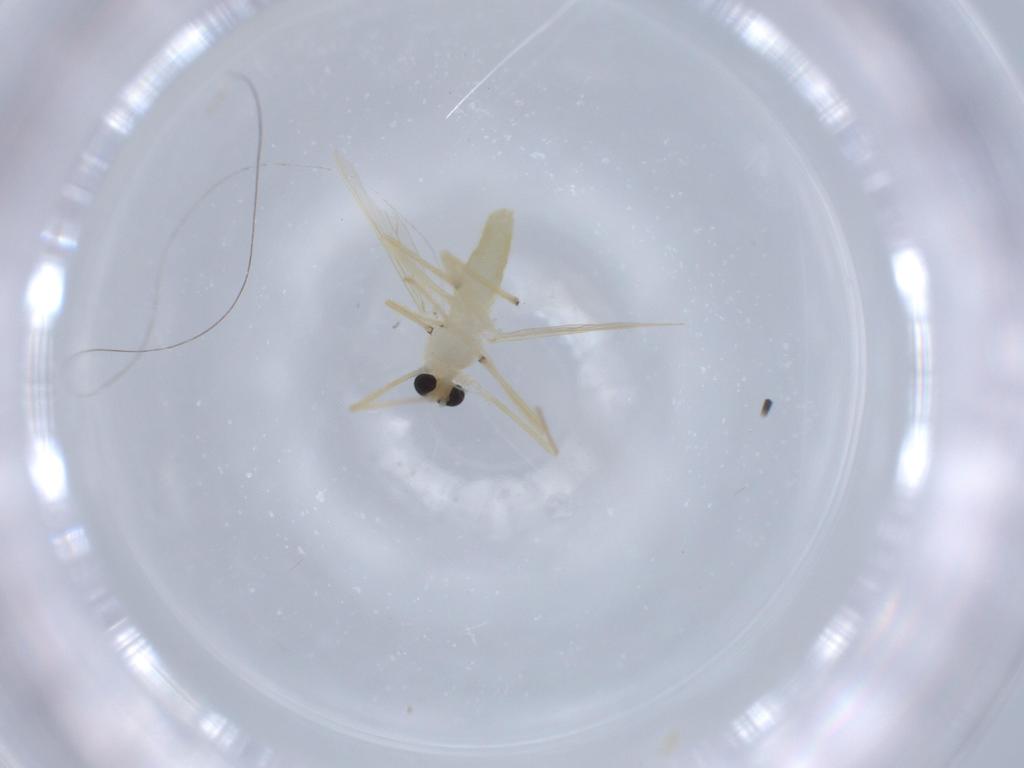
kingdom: Animalia
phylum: Arthropoda
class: Insecta
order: Diptera
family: Chironomidae
